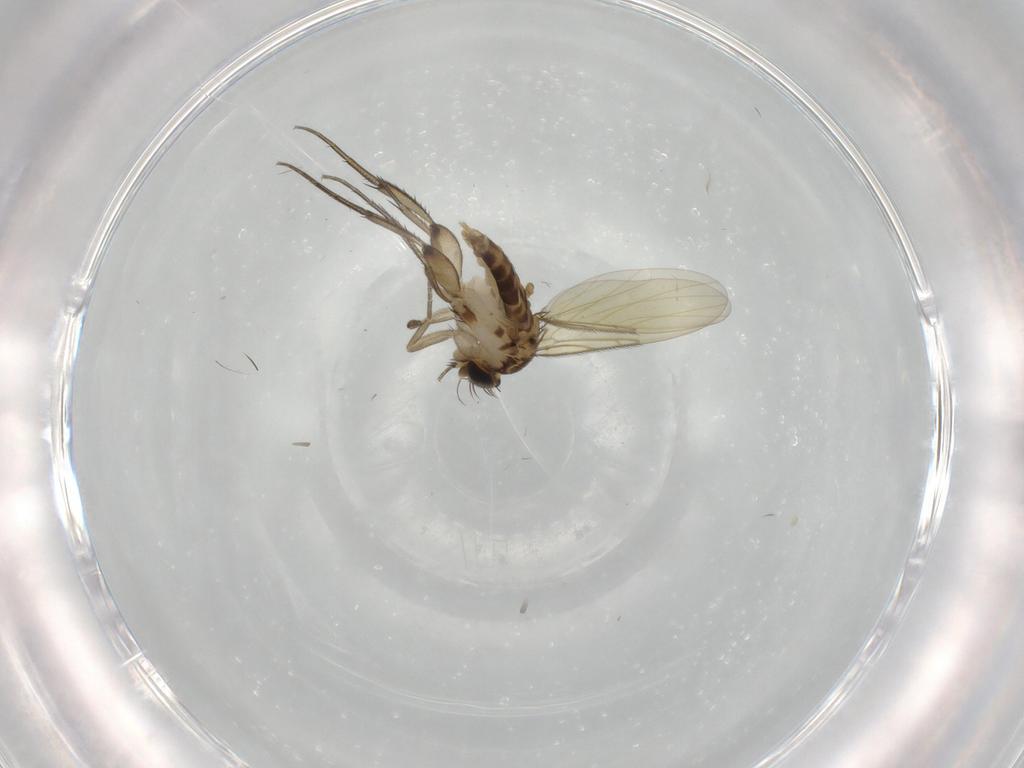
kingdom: Animalia
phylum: Arthropoda
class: Insecta
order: Diptera
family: Phoridae
